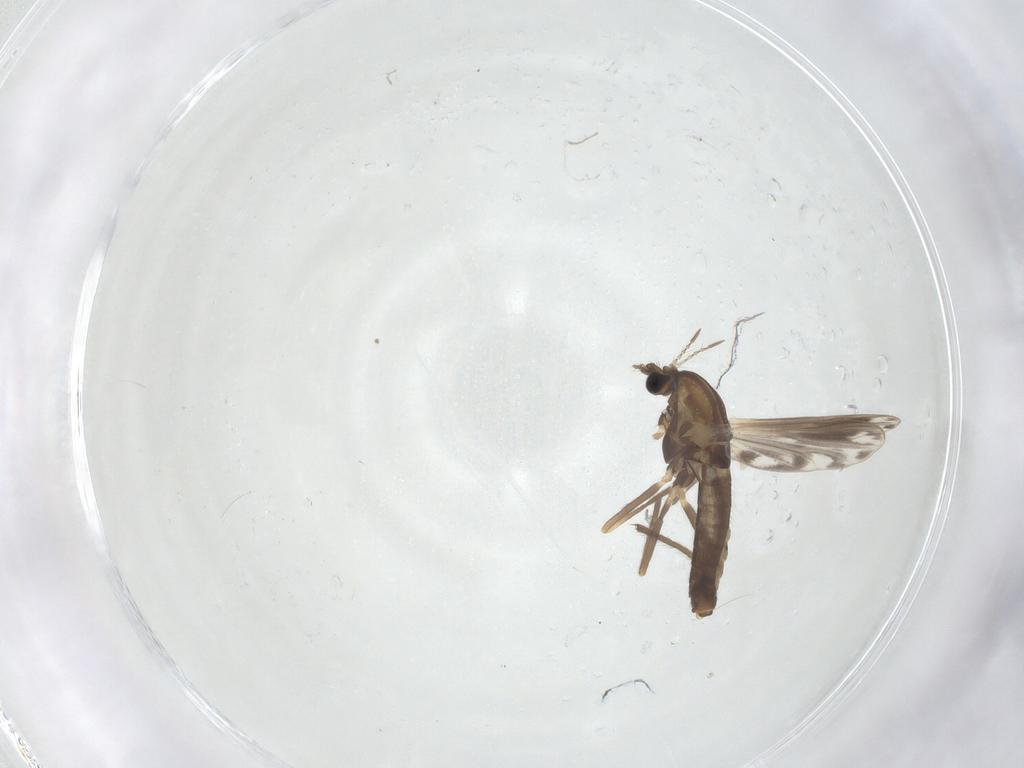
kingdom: Animalia
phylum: Arthropoda
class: Insecta
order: Diptera
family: Chironomidae
